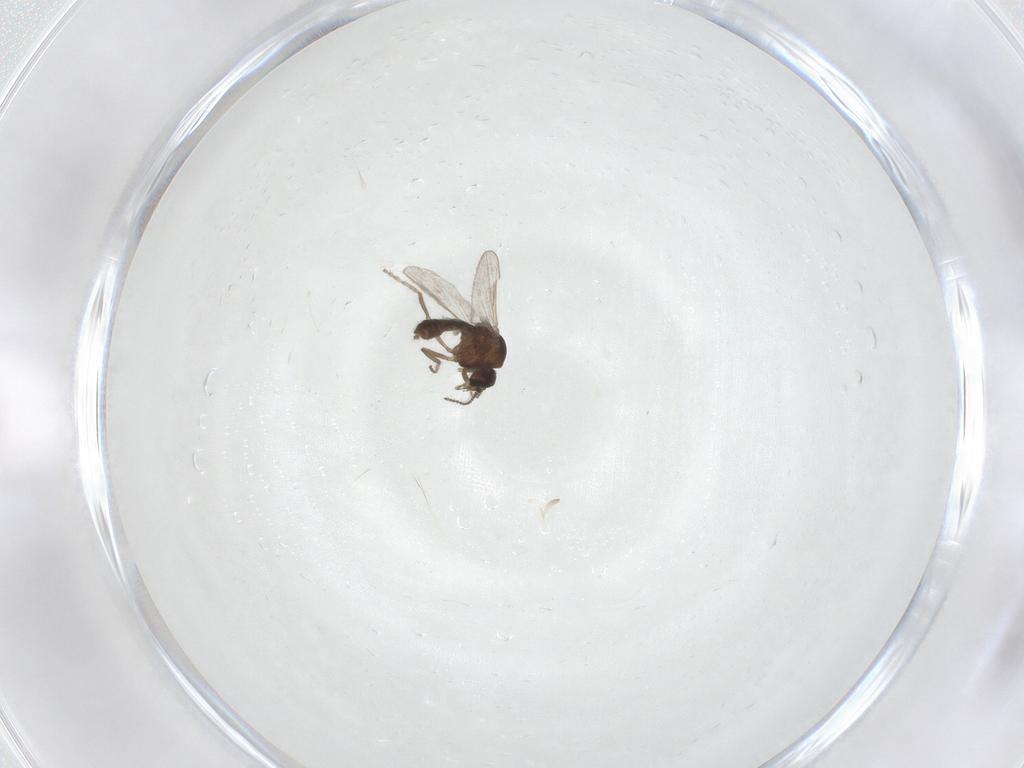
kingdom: Animalia
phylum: Arthropoda
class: Insecta
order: Diptera
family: Ceratopogonidae
